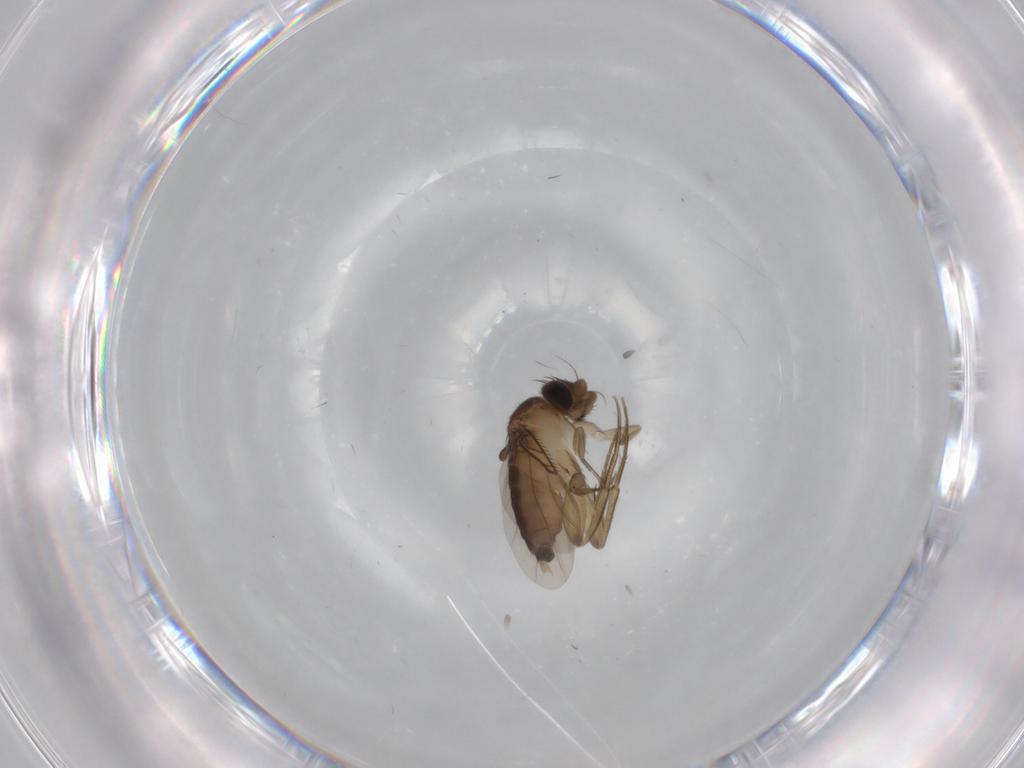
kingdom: Animalia
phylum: Arthropoda
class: Insecta
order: Diptera
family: Phoridae
